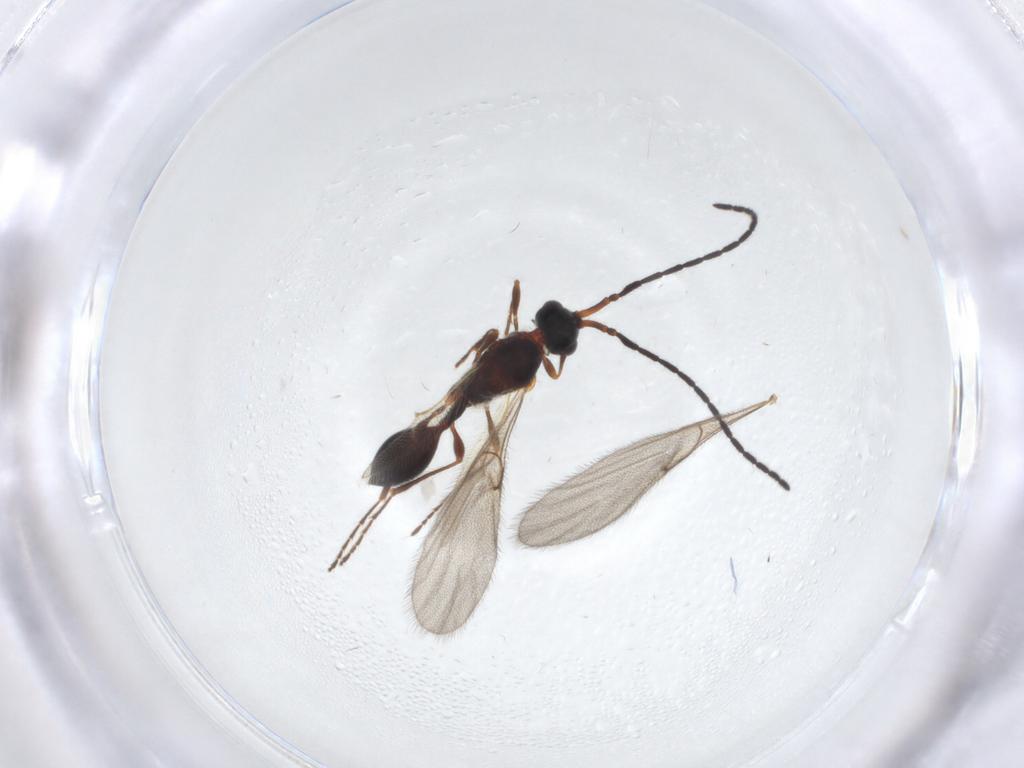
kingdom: Animalia
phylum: Arthropoda
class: Insecta
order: Hymenoptera
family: Diapriidae
